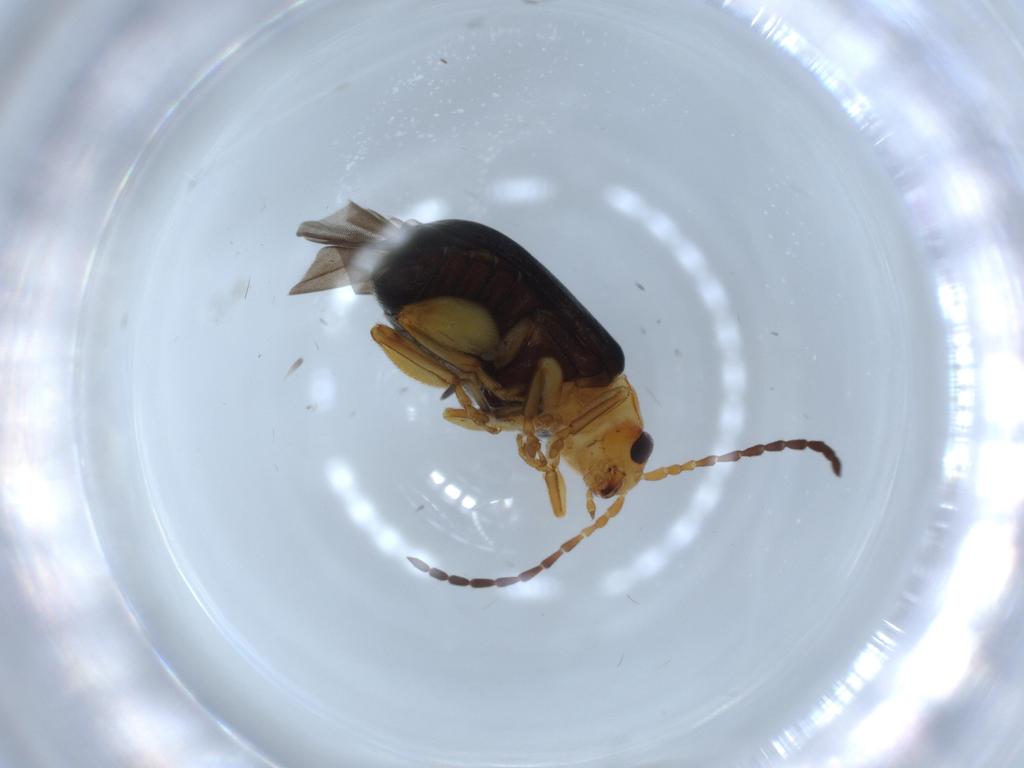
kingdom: Animalia
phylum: Arthropoda
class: Insecta
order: Coleoptera
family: Chrysomelidae
